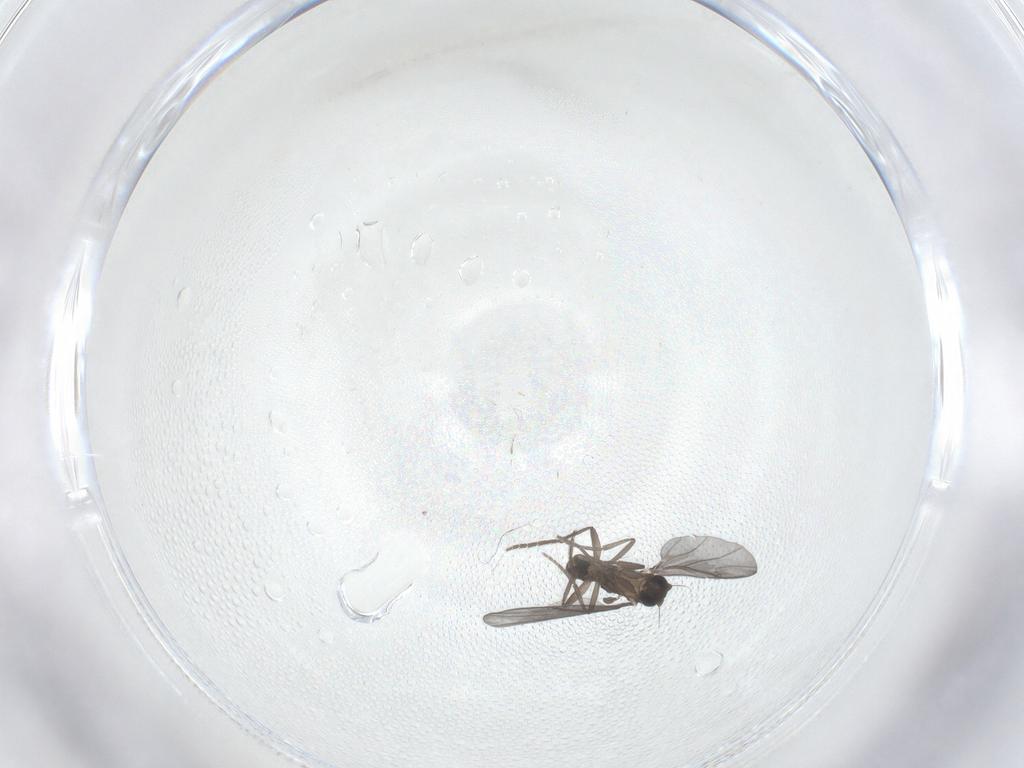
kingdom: Animalia
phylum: Arthropoda
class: Insecta
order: Diptera
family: Phoridae
